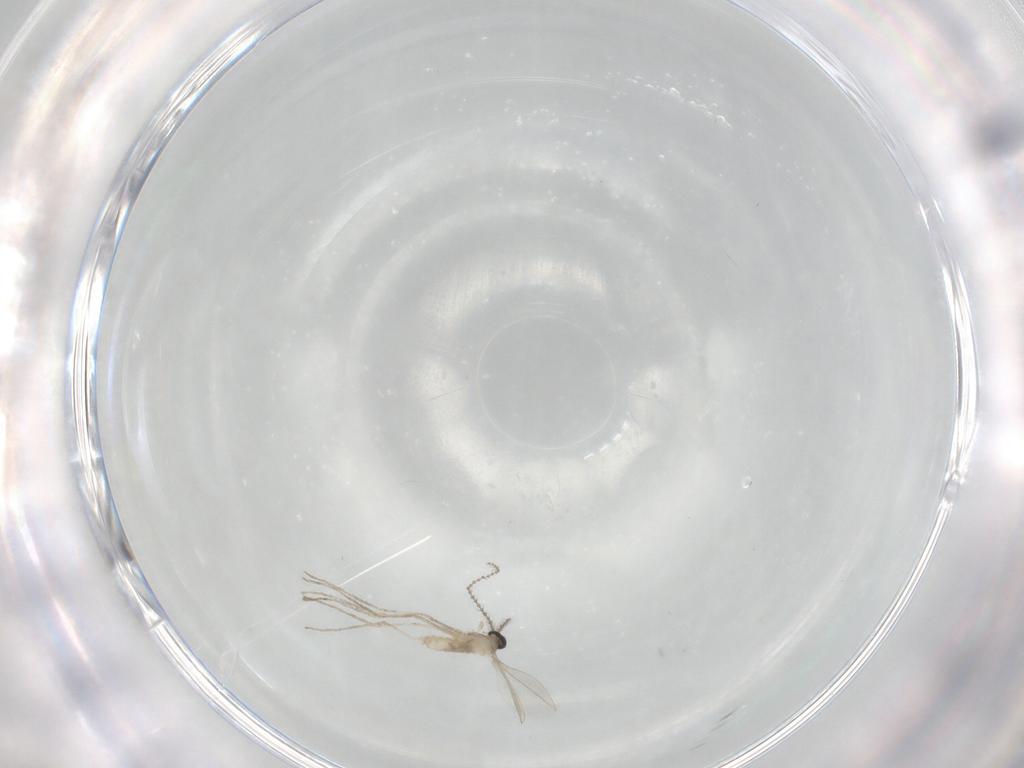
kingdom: Animalia
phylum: Arthropoda
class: Insecta
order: Diptera
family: Cecidomyiidae
